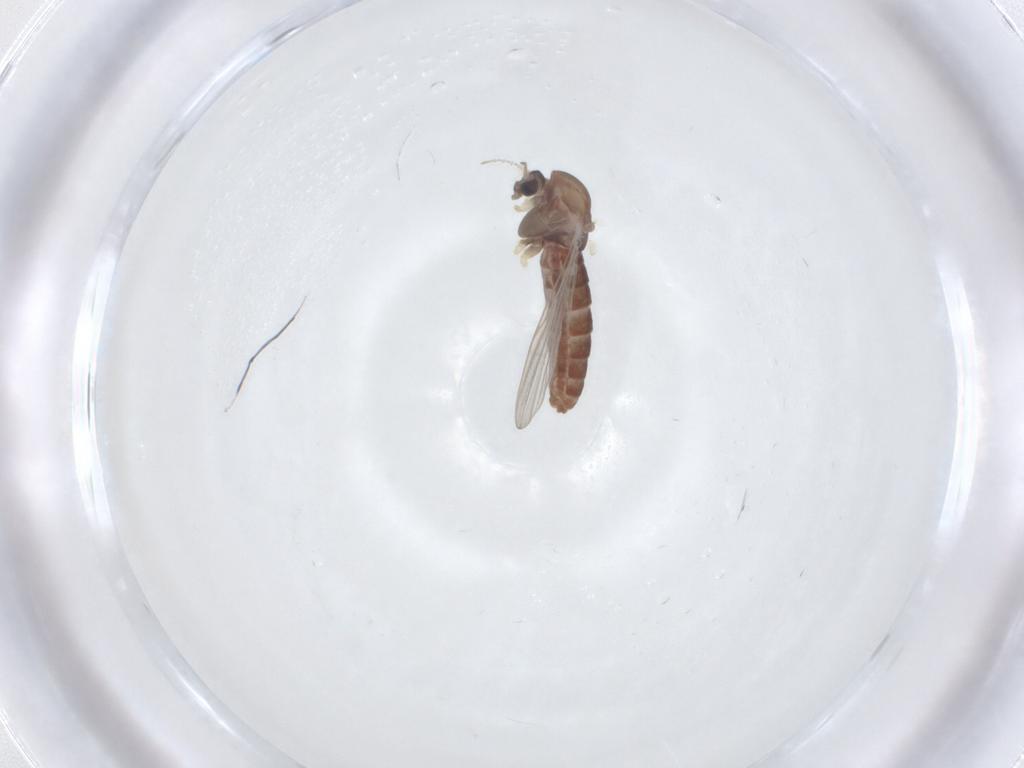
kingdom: Animalia
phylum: Arthropoda
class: Insecta
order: Diptera
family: Chironomidae
